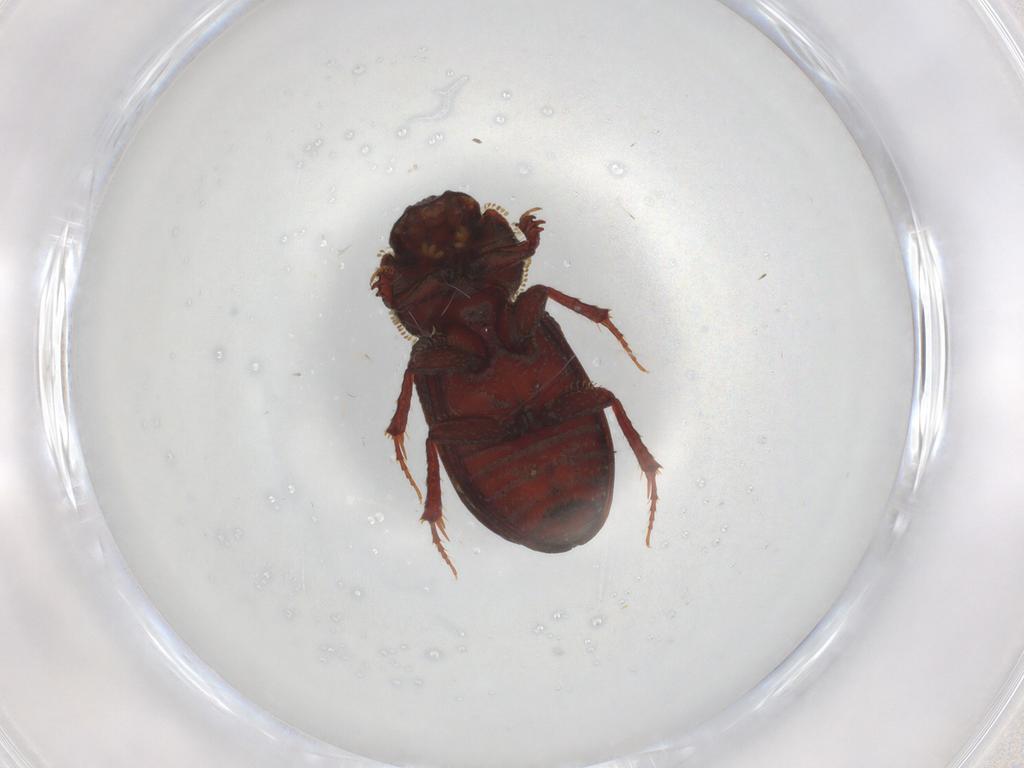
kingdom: Animalia
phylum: Arthropoda
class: Insecta
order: Coleoptera
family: Carabidae
